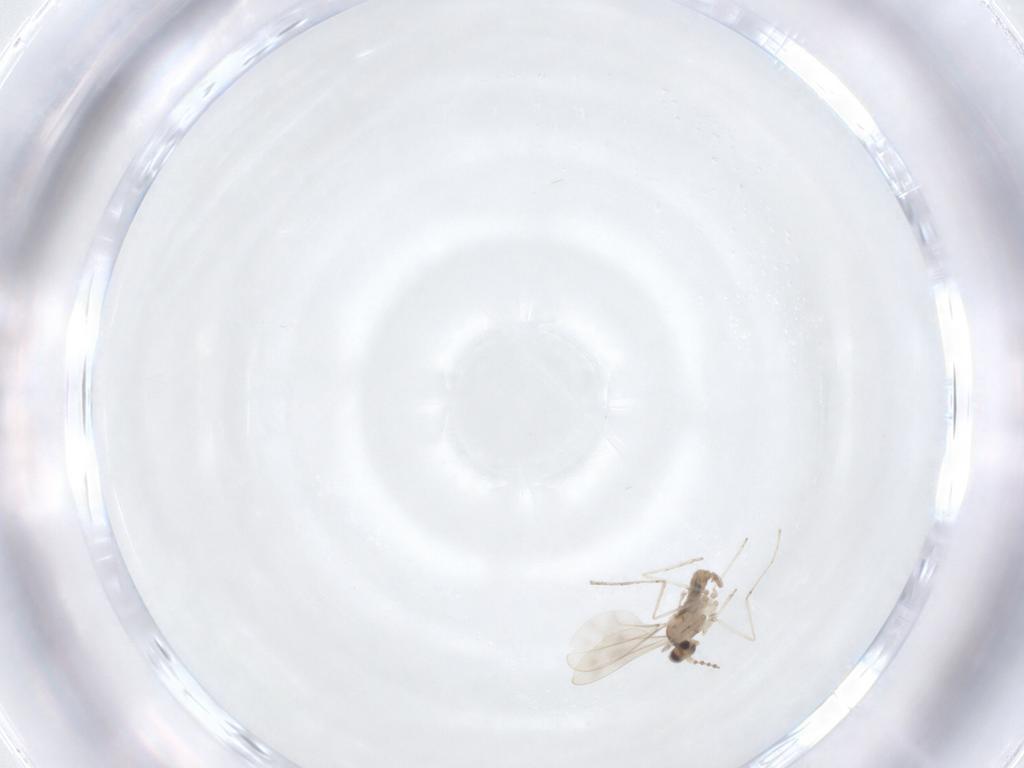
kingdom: Animalia
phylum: Arthropoda
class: Insecta
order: Diptera
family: Cecidomyiidae
